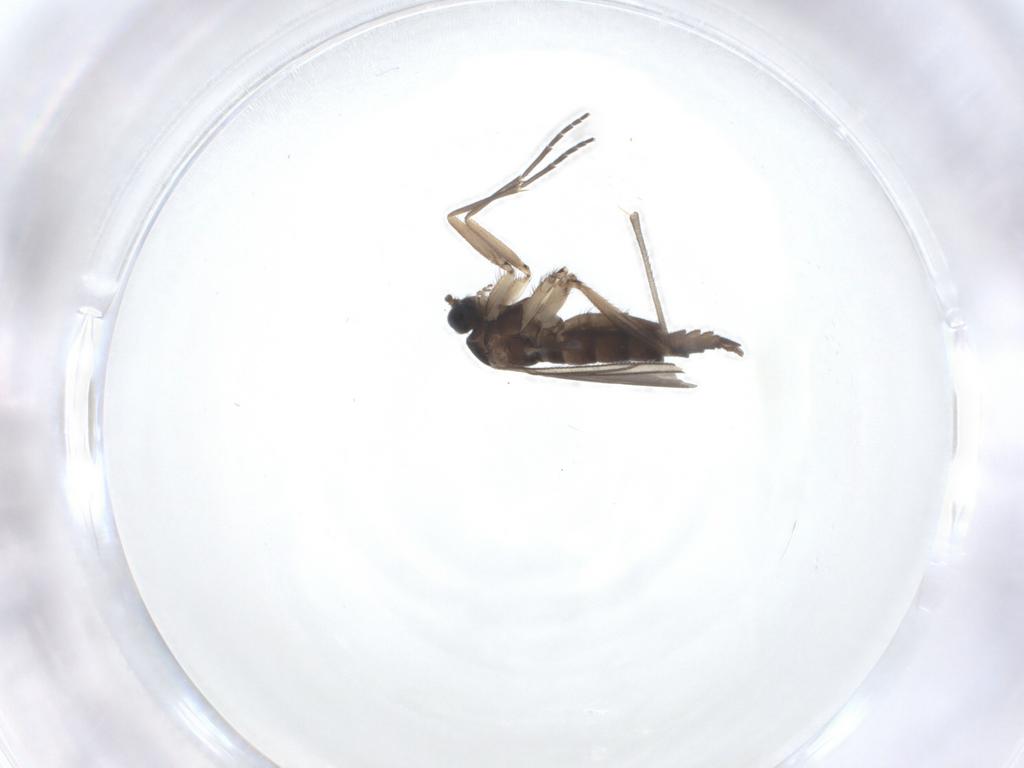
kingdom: Animalia
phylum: Arthropoda
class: Insecta
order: Diptera
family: Sciaridae
